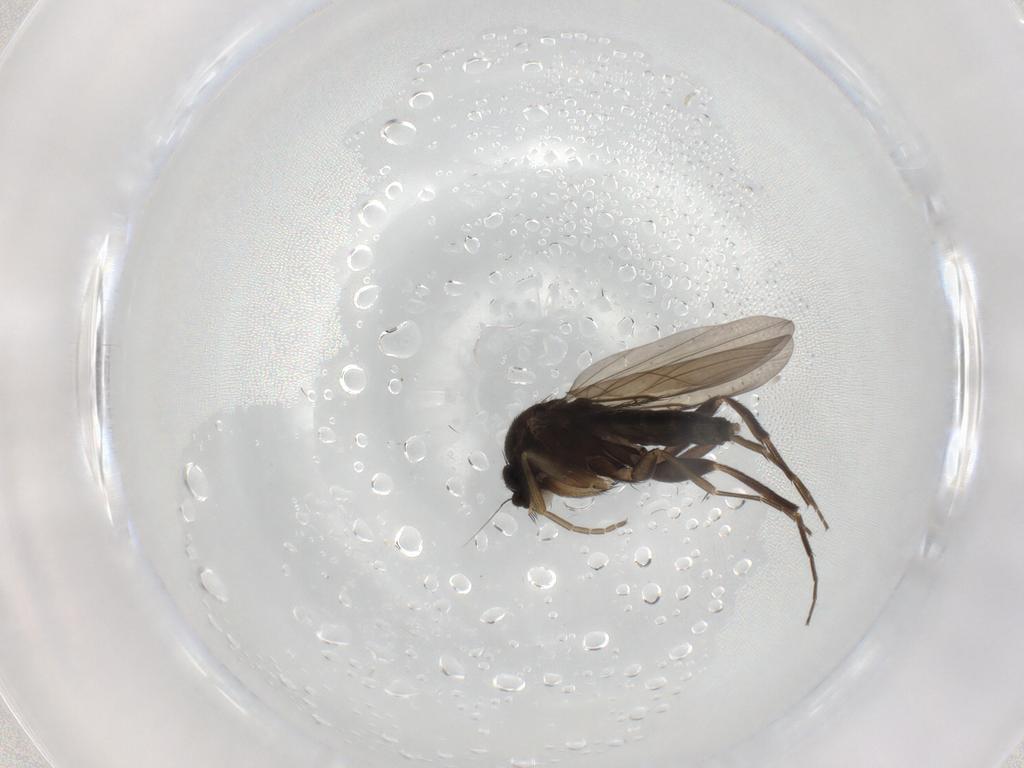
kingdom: Animalia
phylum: Arthropoda
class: Insecta
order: Diptera
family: Phoridae
